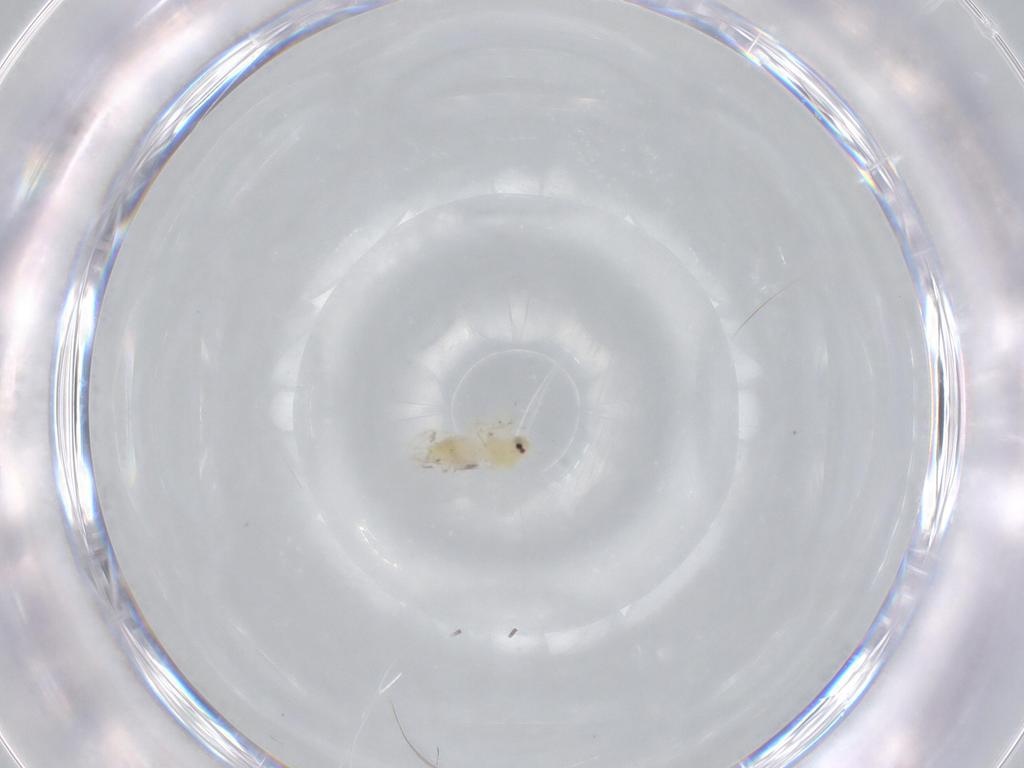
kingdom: Animalia
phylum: Arthropoda
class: Insecta
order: Hemiptera
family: Aleyrodidae
